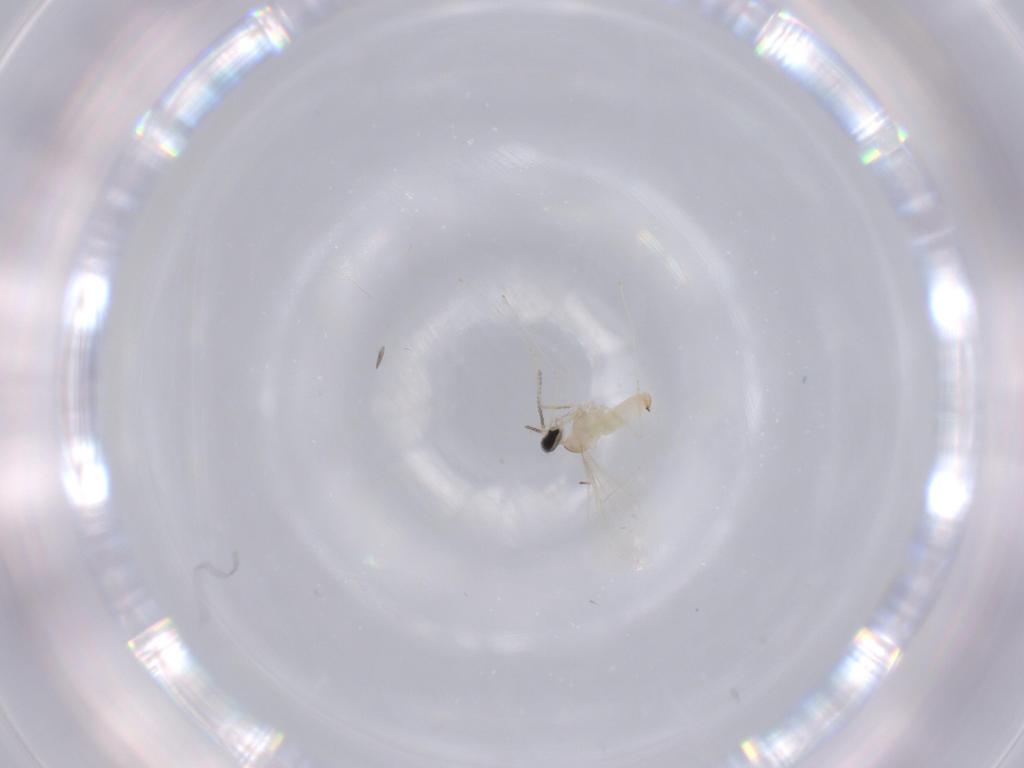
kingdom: Animalia
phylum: Arthropoda
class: Insecta
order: Diptera
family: Cecidomyiidae
